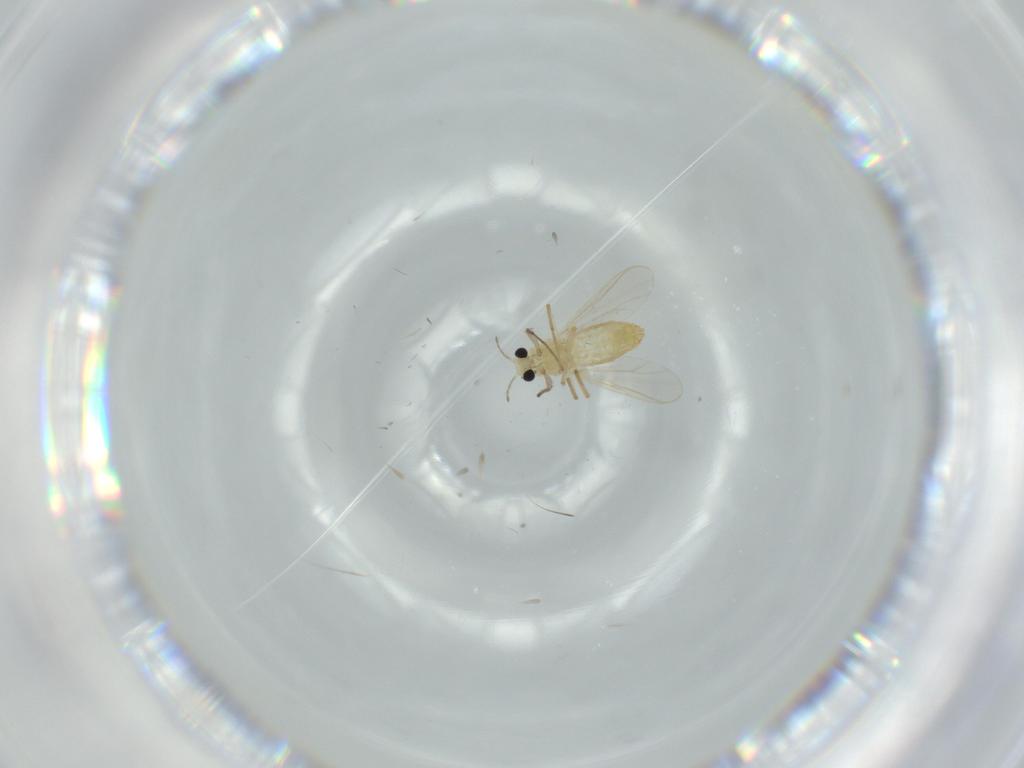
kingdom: Animalia
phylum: Arthropoda
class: Insecta
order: Diptera
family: Chironomidae
